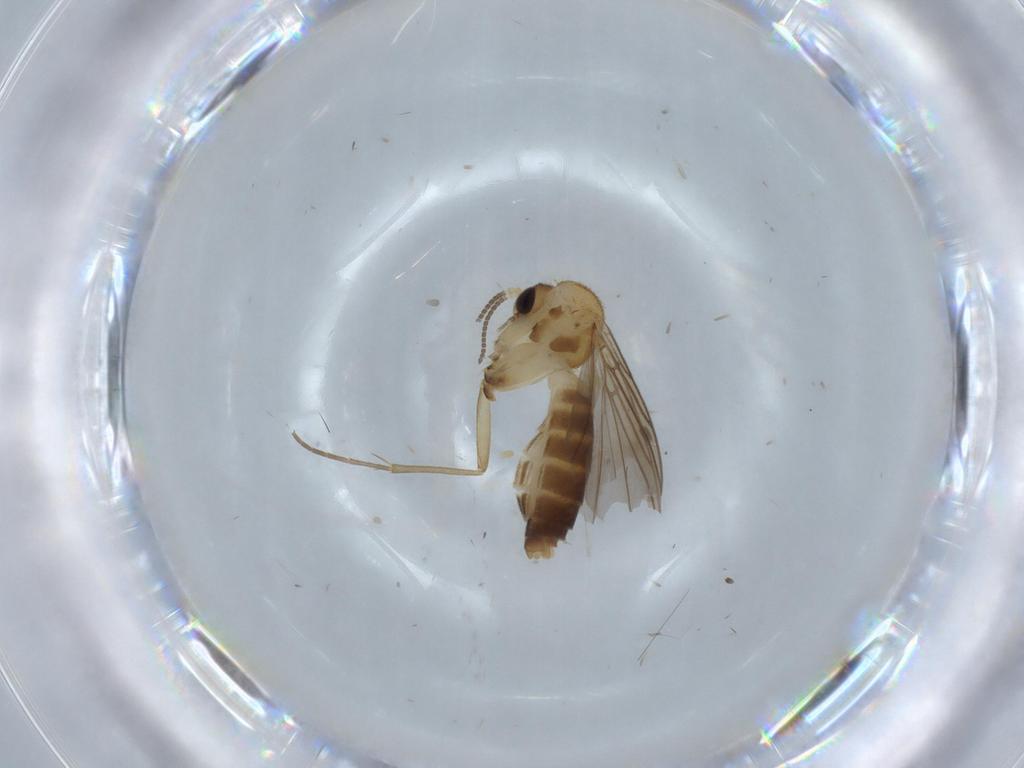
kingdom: Animalia
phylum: Arthropoda
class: Insecta
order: Diptera
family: Mycetophilidae
